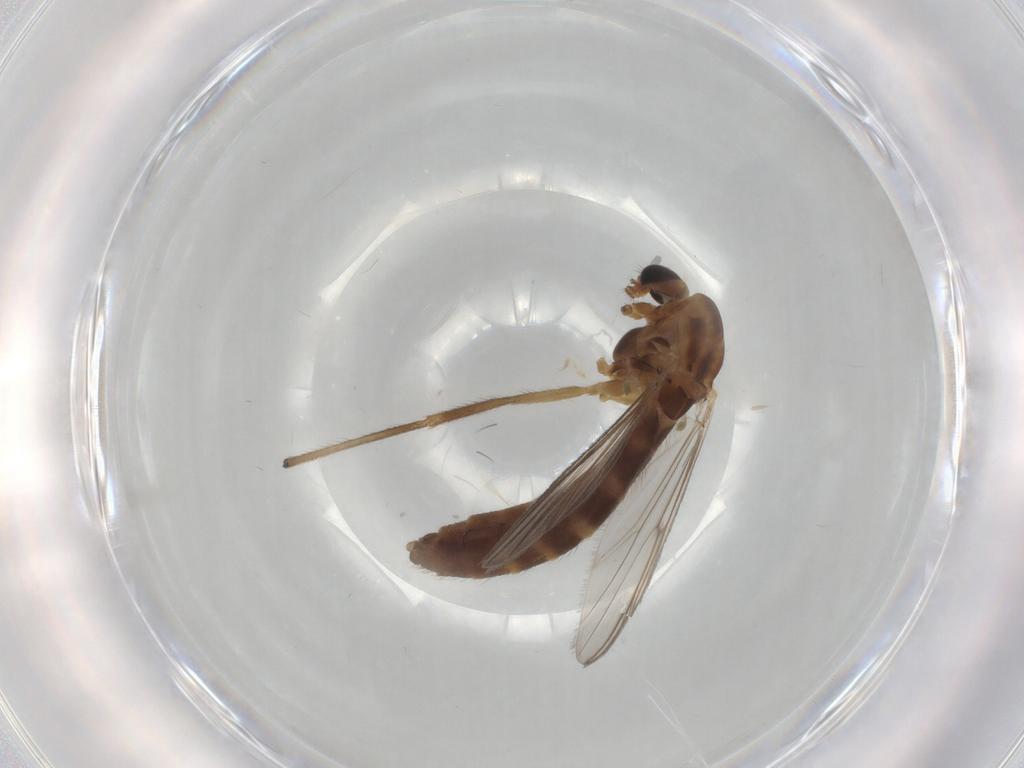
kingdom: Animalia
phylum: Arthropoda
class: Insecta
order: Diptera
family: Chironomidae
